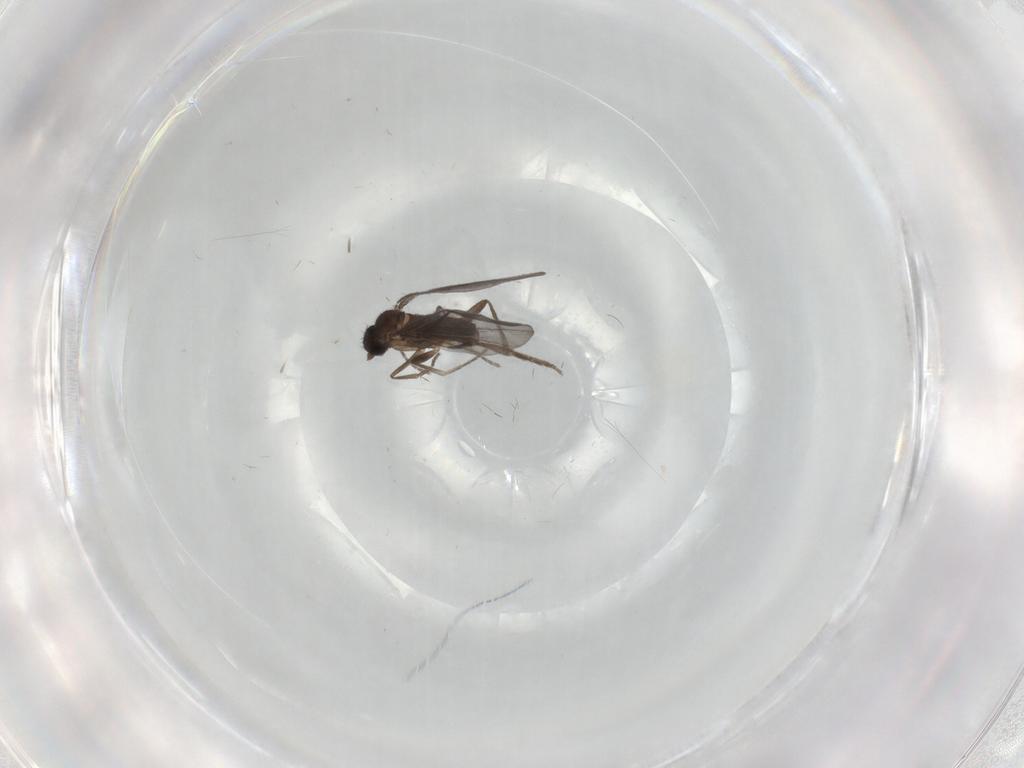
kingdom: Animalia
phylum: Arthropoda
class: Insecta
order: Diptera
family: Phoridae
